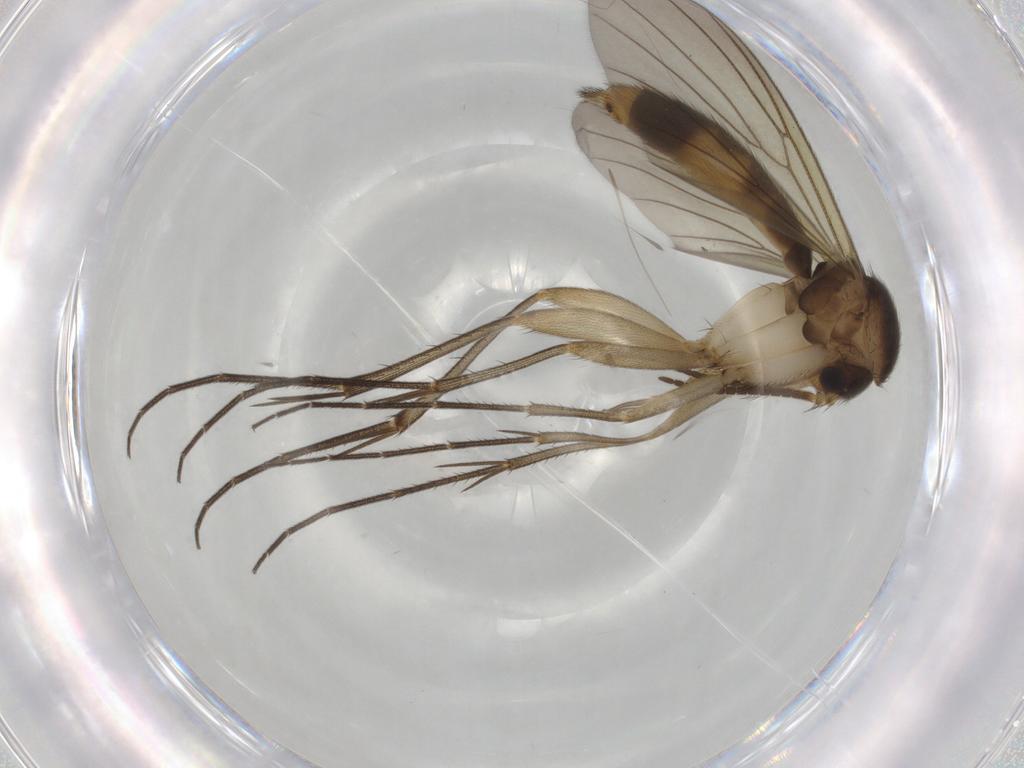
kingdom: Animalia
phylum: Arthropoda
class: Insecta
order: Diptera
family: Mycetophilidae
